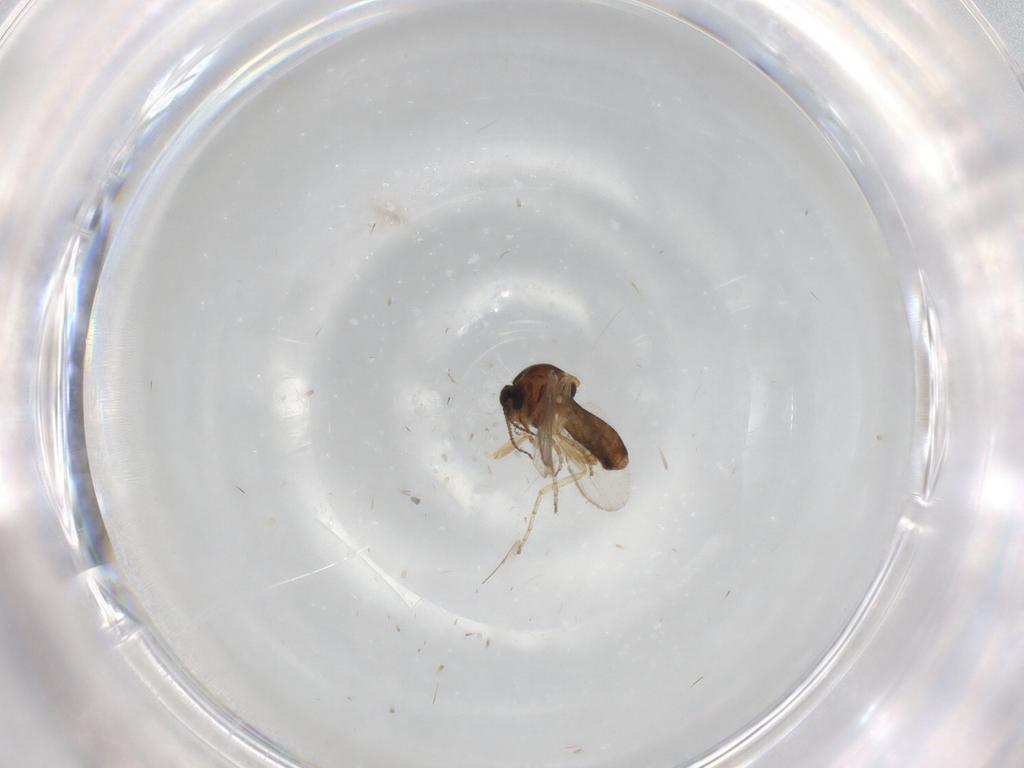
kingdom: Animalia
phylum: Arthropoda
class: Insecta
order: Diptera
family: Ceratopogonidae
